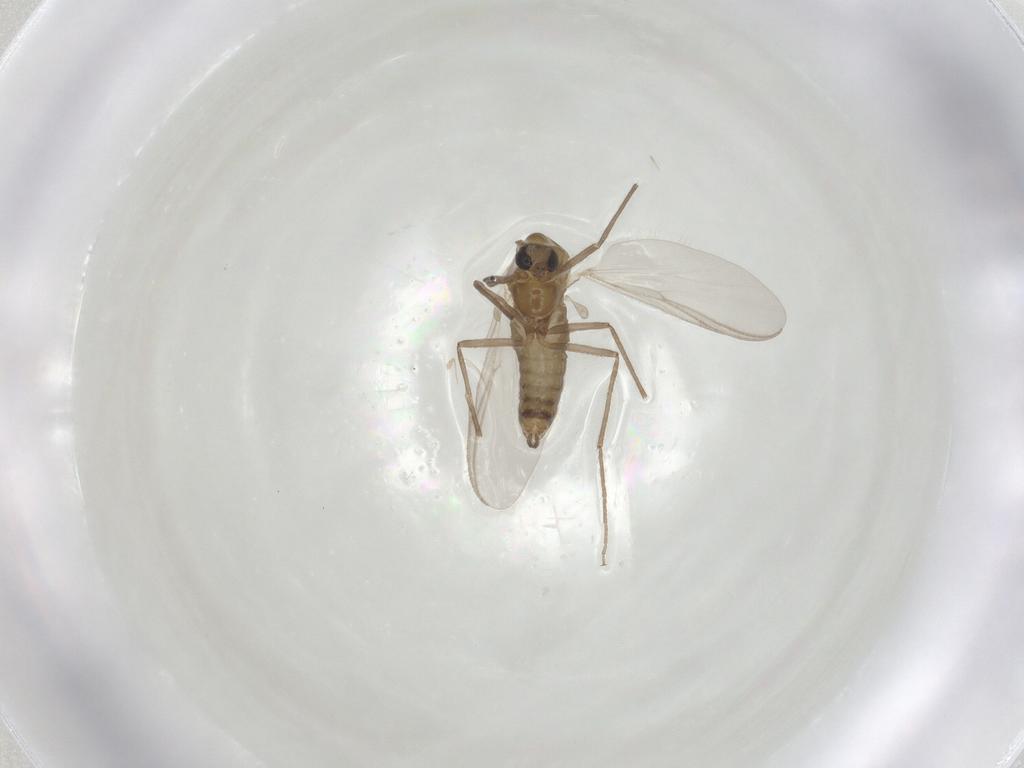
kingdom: Animalia
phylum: Arthropoda
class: Insecta
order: Diptera
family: Chironomidae
